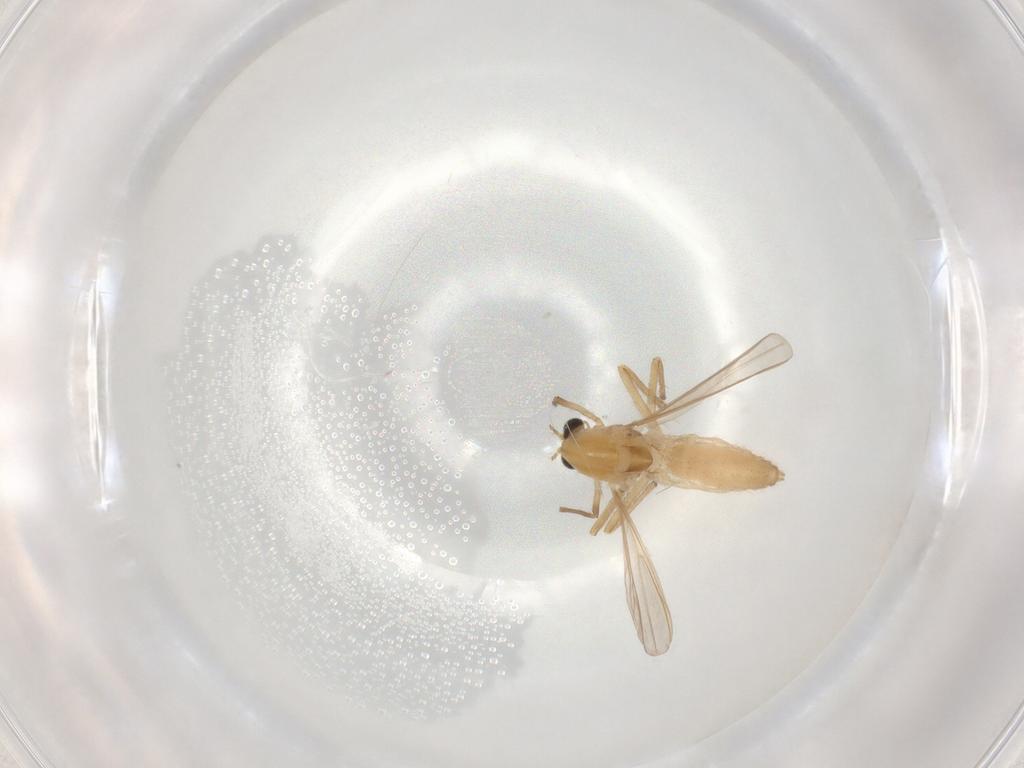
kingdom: Animalia
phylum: Arthropoda
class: Insecta
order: Diptera
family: Chironomidae
